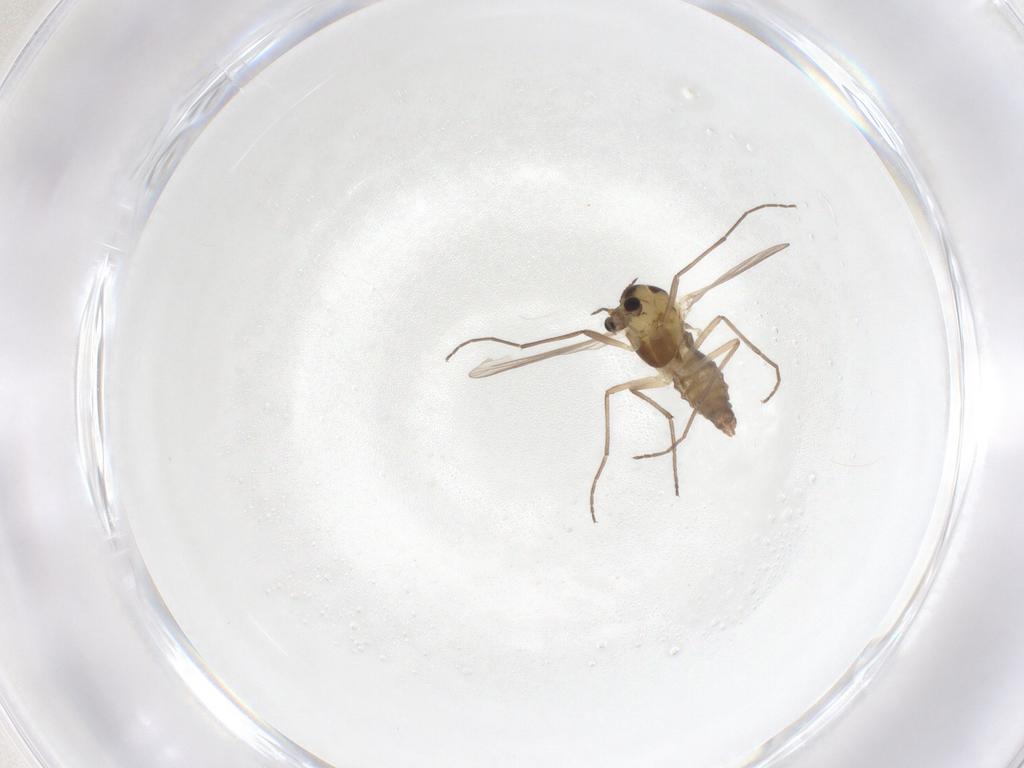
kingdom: Animalia
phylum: Arthropoda
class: Insecta
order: Diptera
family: Chironomidae
